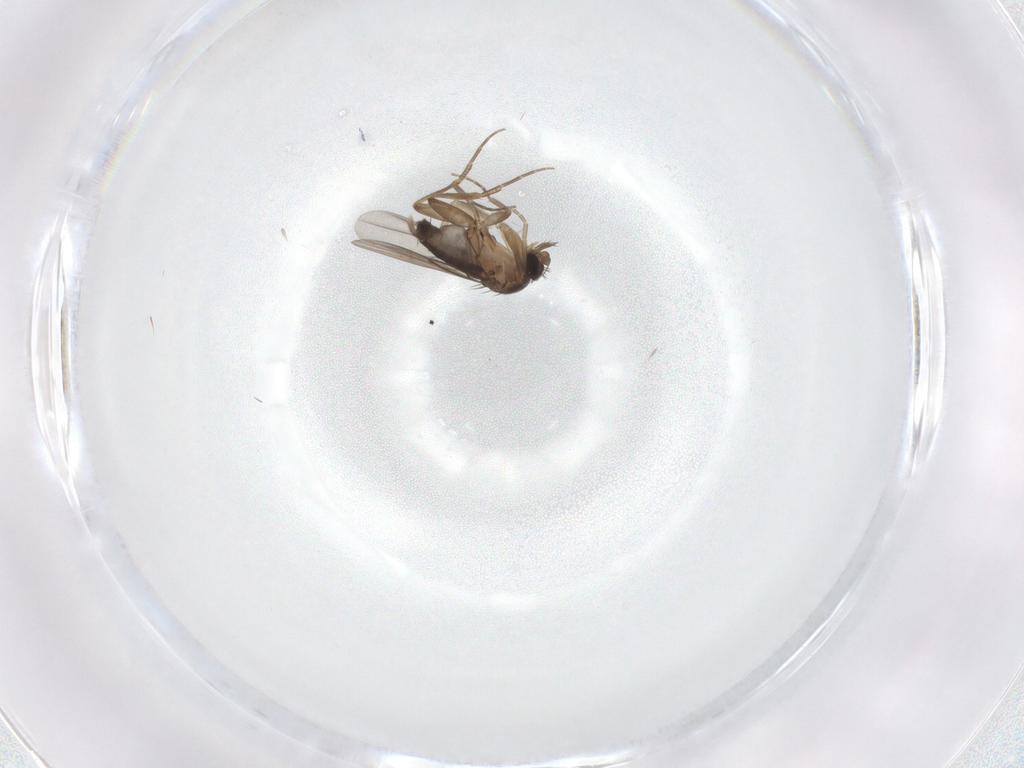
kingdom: Animalia
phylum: Arthropoda
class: Insecta
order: Diptera
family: Phoridae
